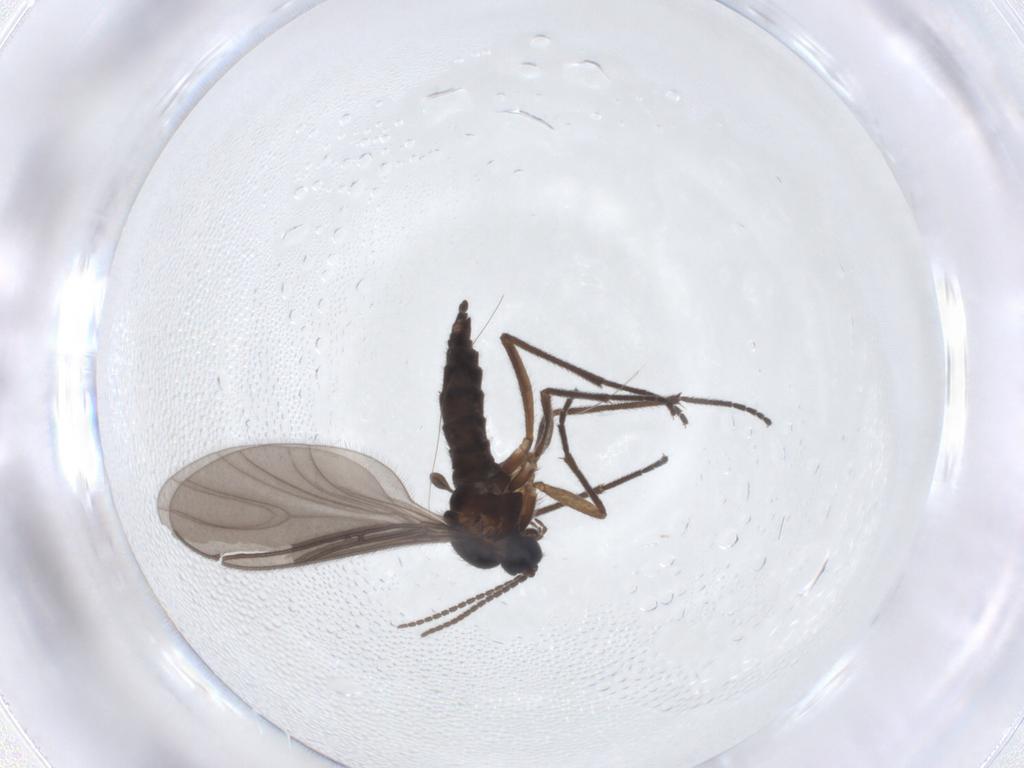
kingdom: Animalia
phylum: Arthropoda
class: Insecta
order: Diptera
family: Sciaridae
